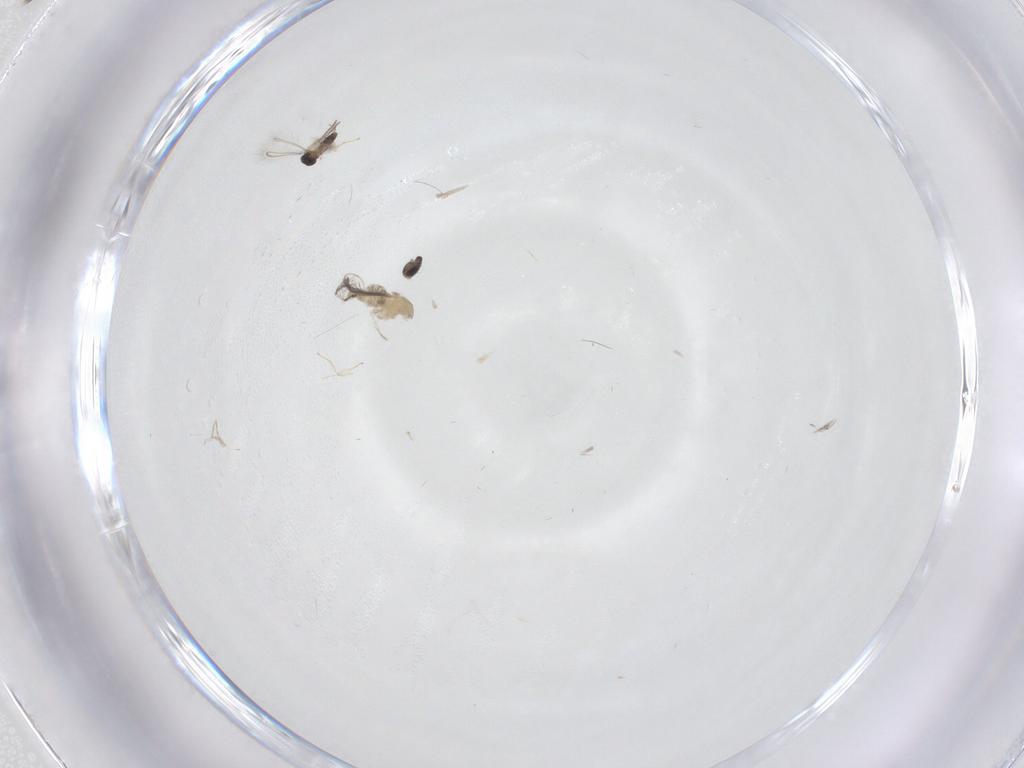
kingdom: Animalia
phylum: Arthropoda
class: Insecta
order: Diptera
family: Cecidomyiidae
